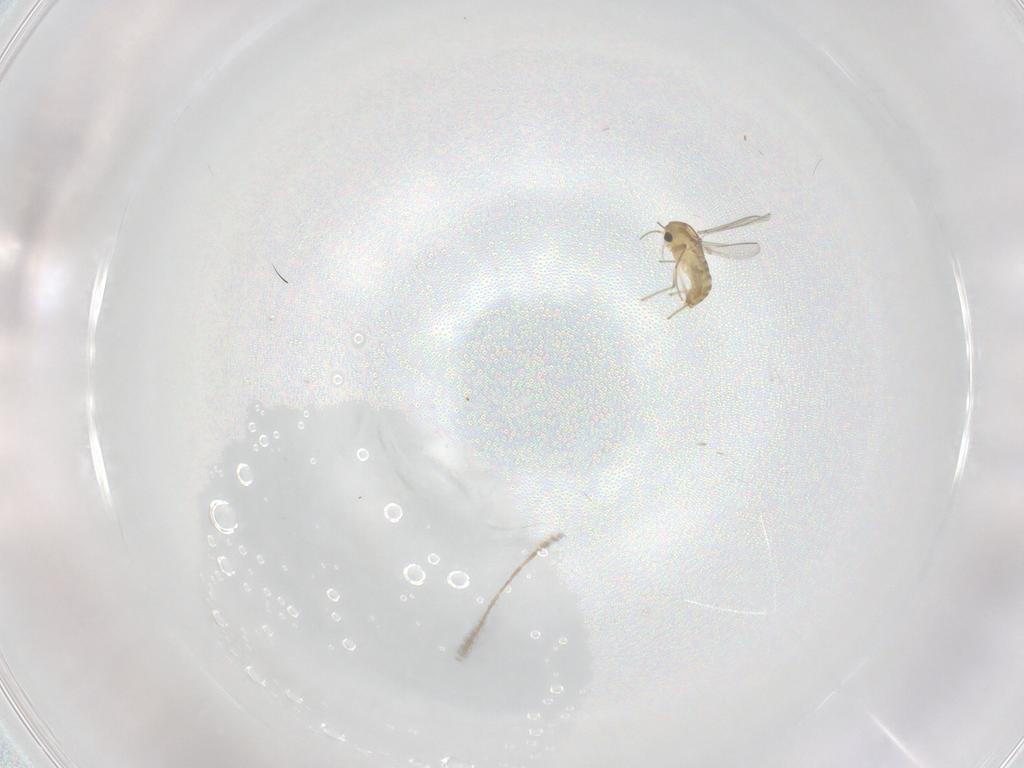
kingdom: Animalia
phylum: Arthropoda
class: Insecta
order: Diptera
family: Chironomidae
